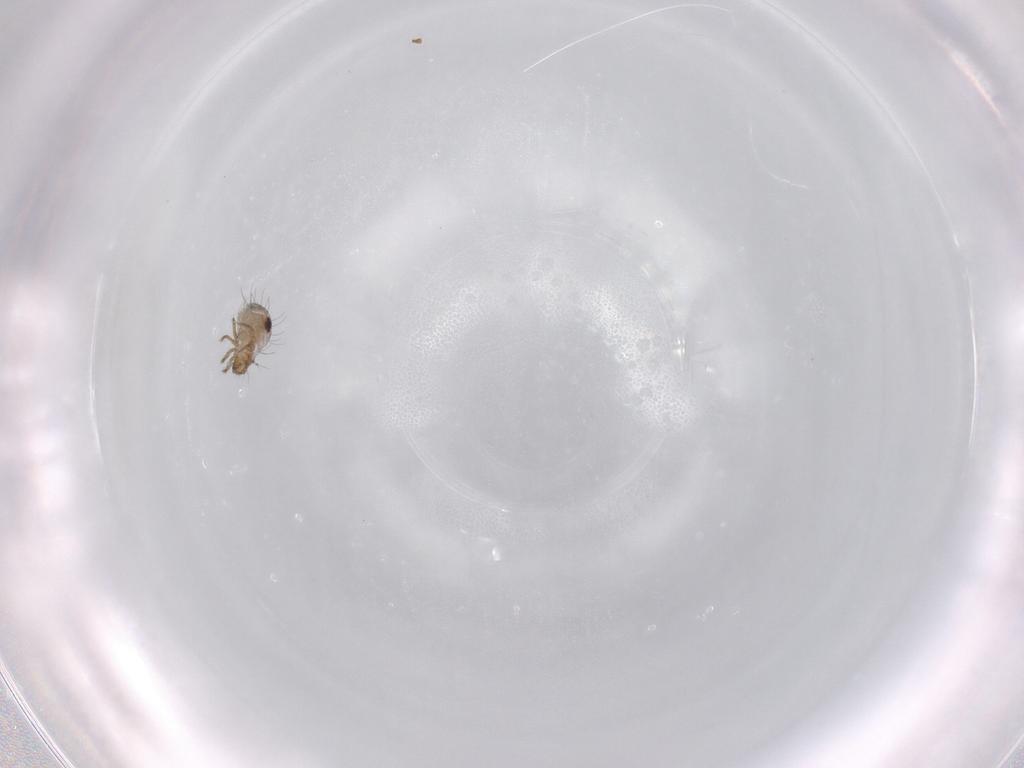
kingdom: Animalia
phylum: Arthropoda
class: Arachnida
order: Sarcoptiformes
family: Humerobatidae
